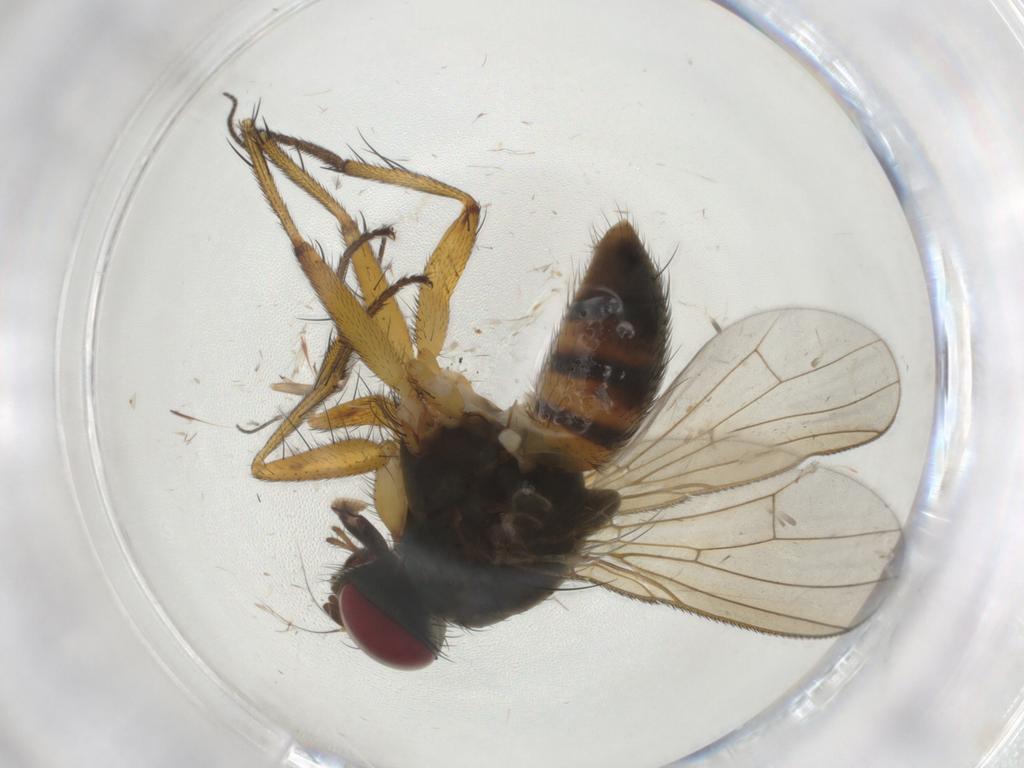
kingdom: Animalia
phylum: Arthropoda
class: Insecta
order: Diptera
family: Muscidae
